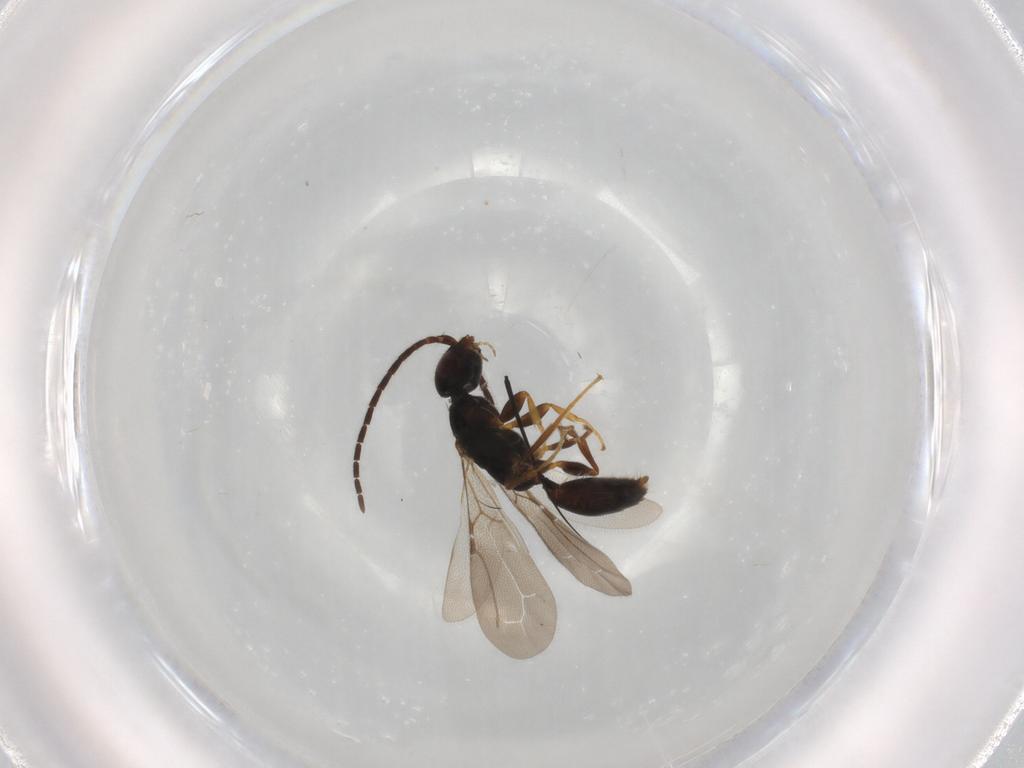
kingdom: Animalia
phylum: Arthropoda
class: Insecta
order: Hymenoptera
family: Bethylidae
